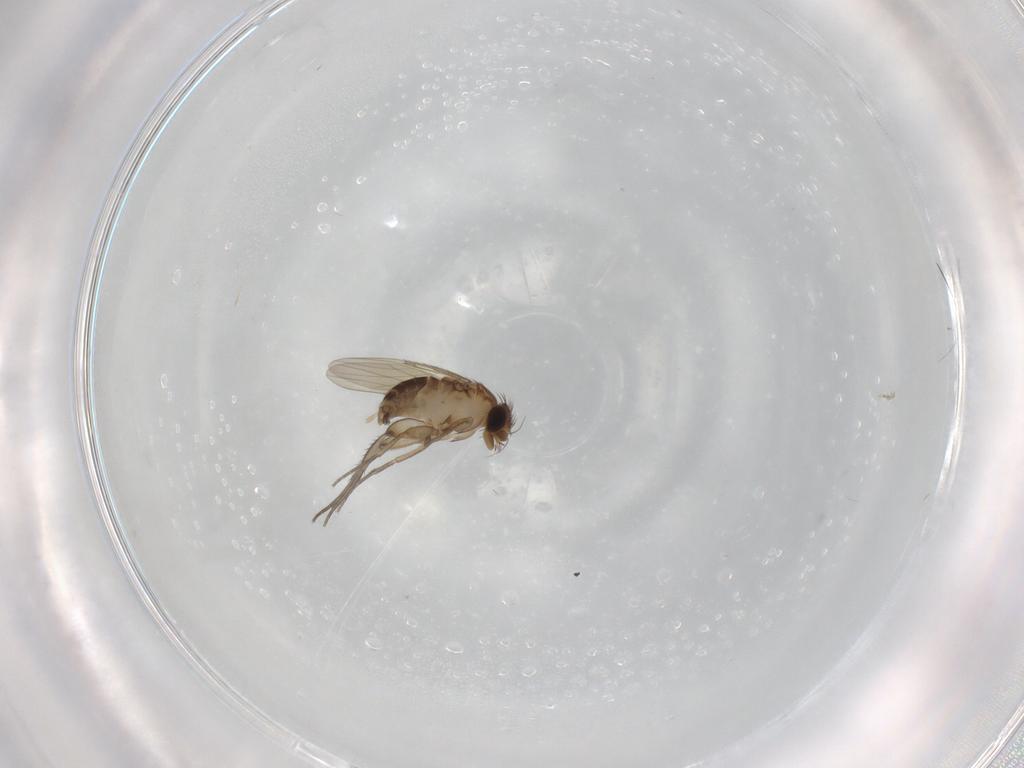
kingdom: Animalia
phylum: Arthropoda
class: Insecta
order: Diptera
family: Phoridae
